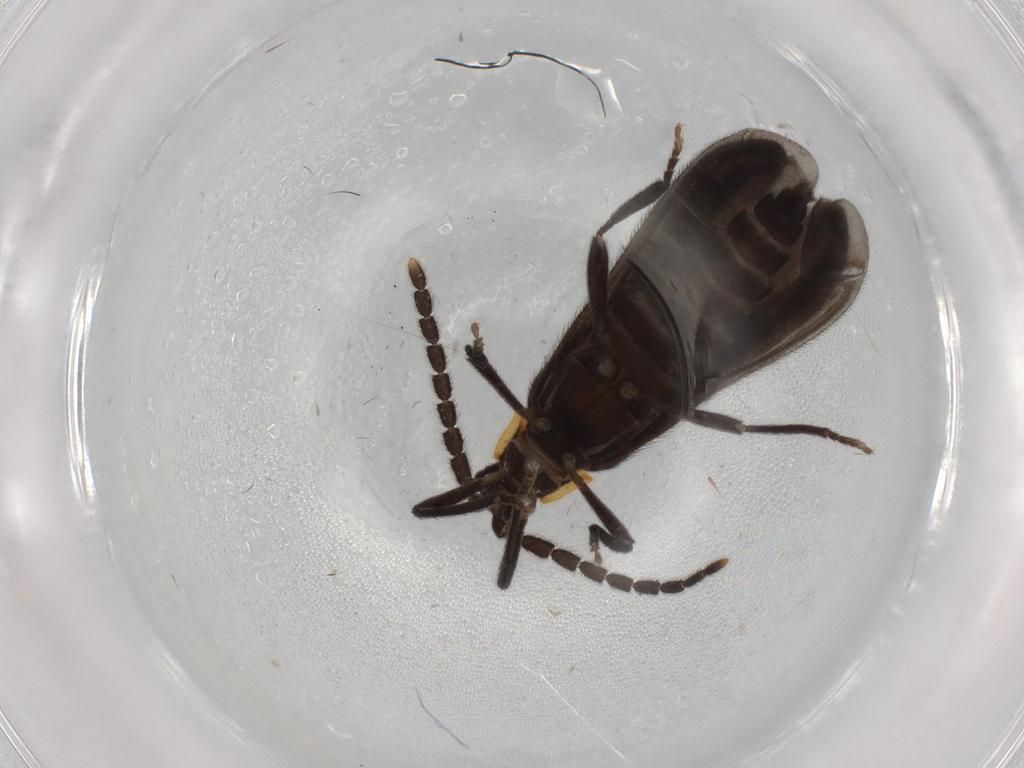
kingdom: Animalia
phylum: Arthropoda
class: Insecta
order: Coleoptera
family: Lycidae
